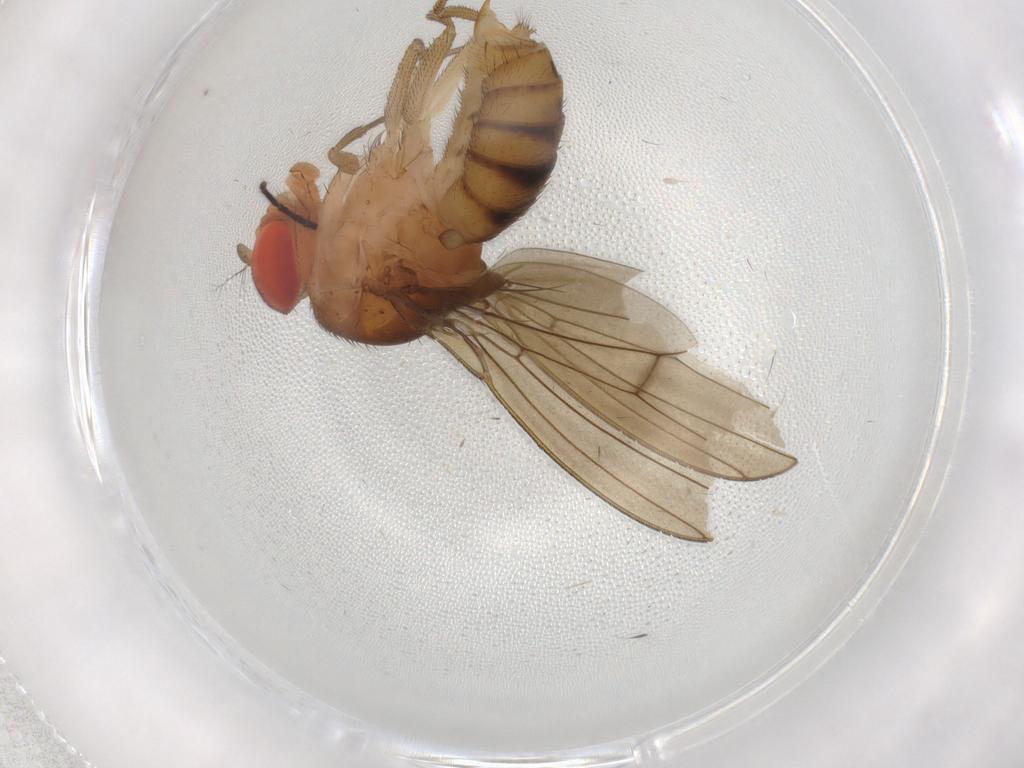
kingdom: Animalia
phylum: Arthropoda
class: Insecta
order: Diptera
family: Drosophilidae
